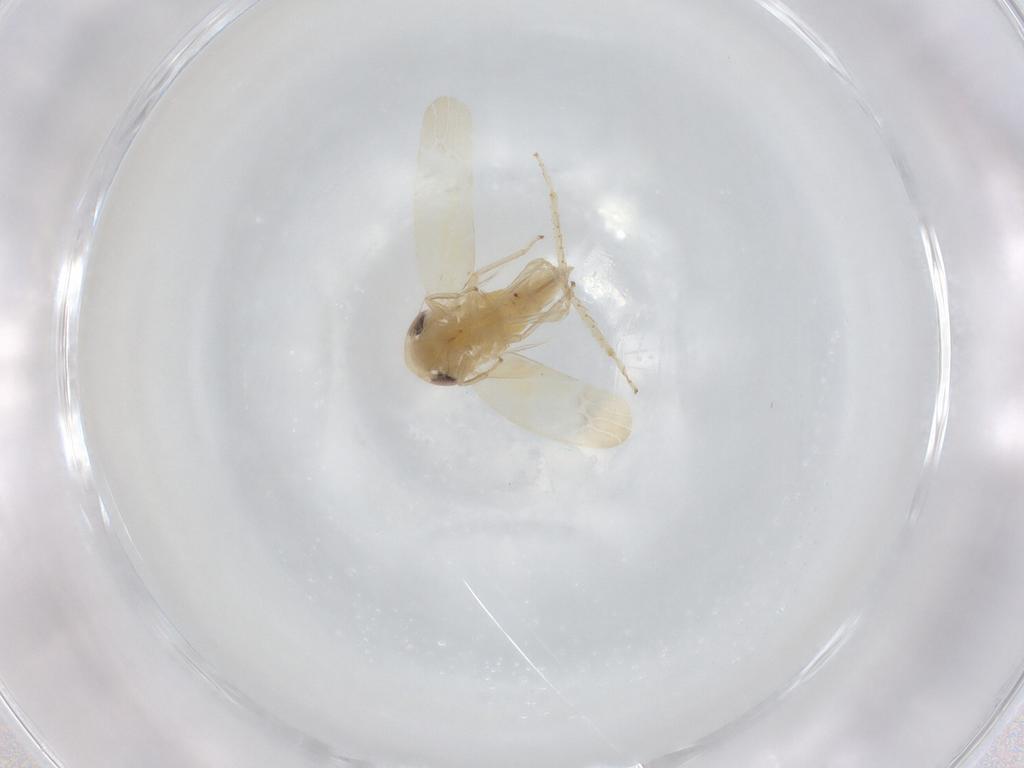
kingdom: Animalia
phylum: Arthropoda
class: Insecta
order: Hemiptera
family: Cicadellidae
